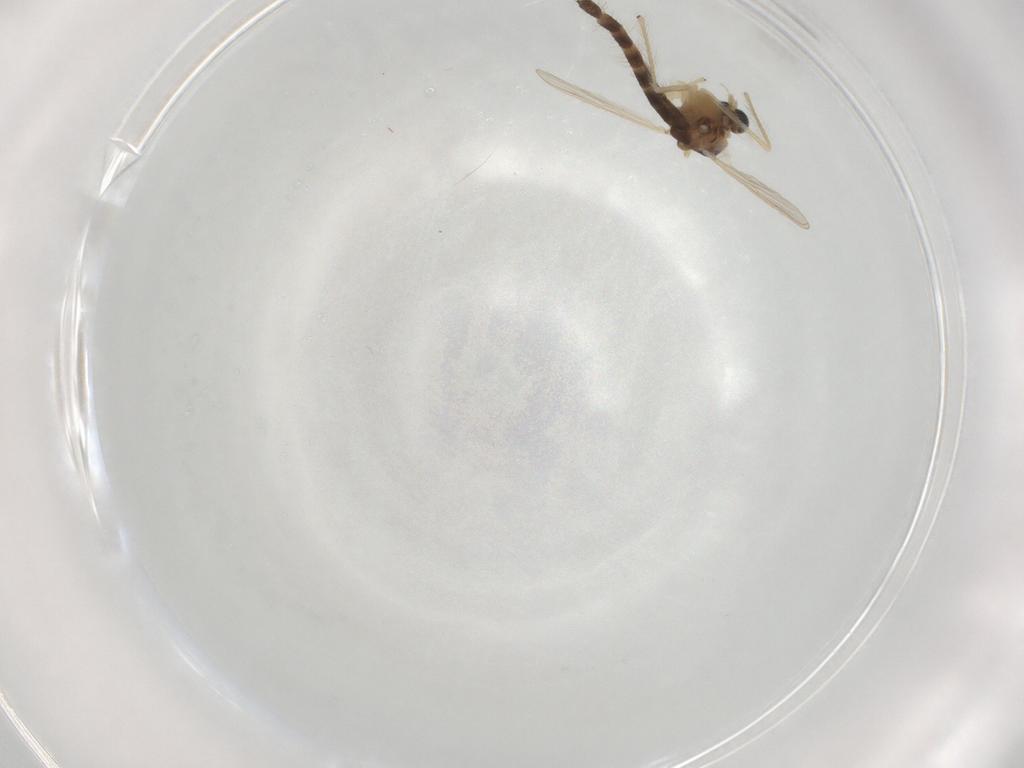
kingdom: Animalia
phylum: Arthropoda
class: Insecta
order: Diptera
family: Chironomidae
